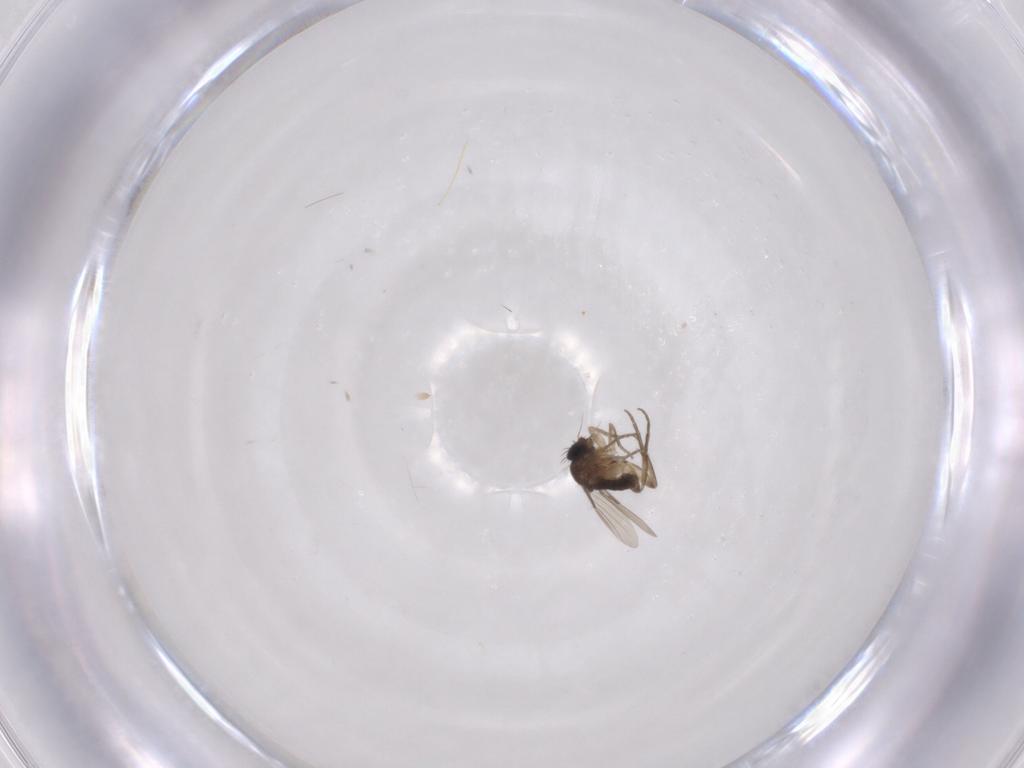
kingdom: Animalia
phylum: Arthropoda
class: Insecta
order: Diptera
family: Phoridae
